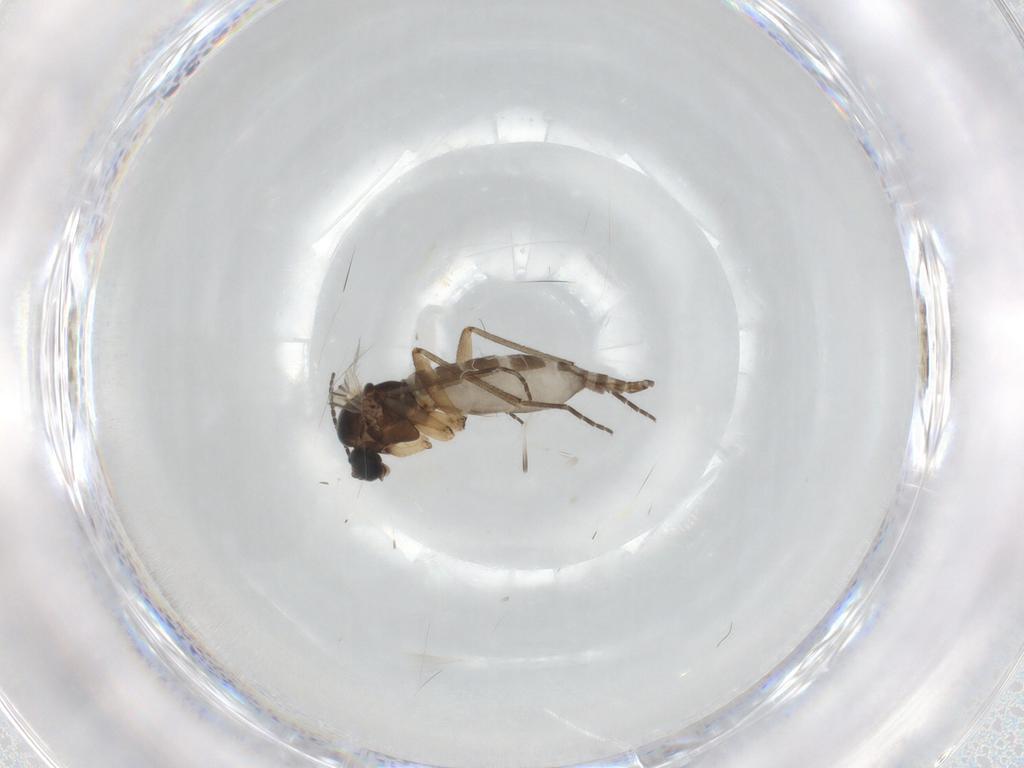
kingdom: Animalia
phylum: Arthropoda
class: Insecta
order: Diptera
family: Sciaridae
